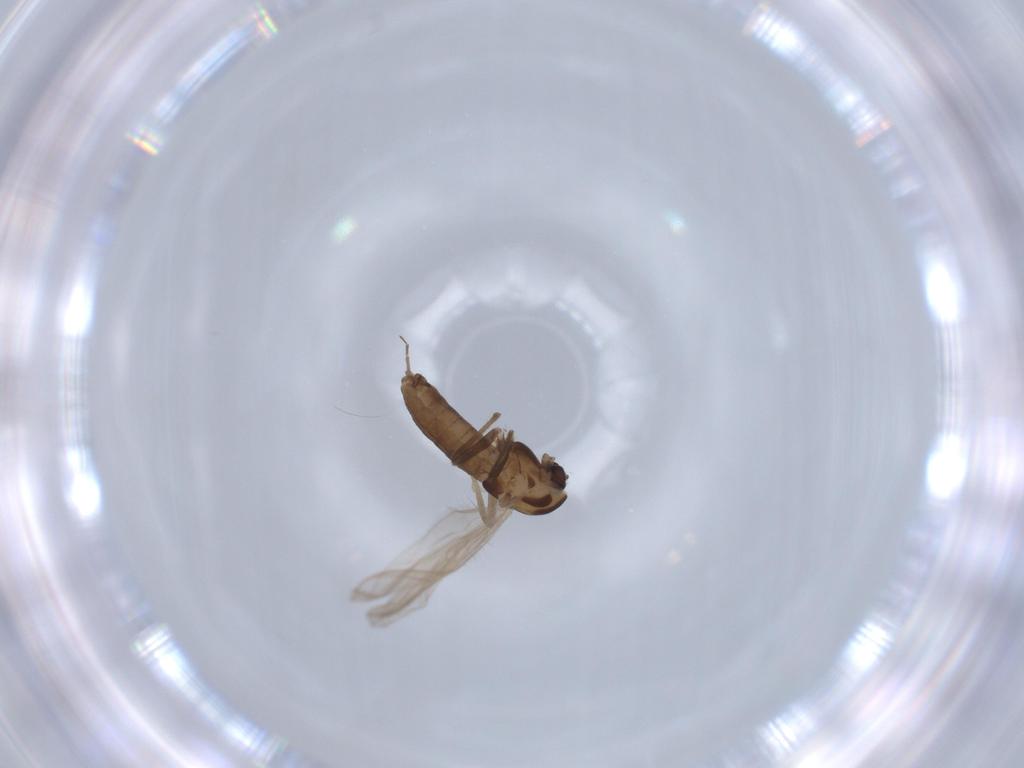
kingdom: Animalia
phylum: Arthropoda
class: Insecta
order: Diptera
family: Chironomidae
